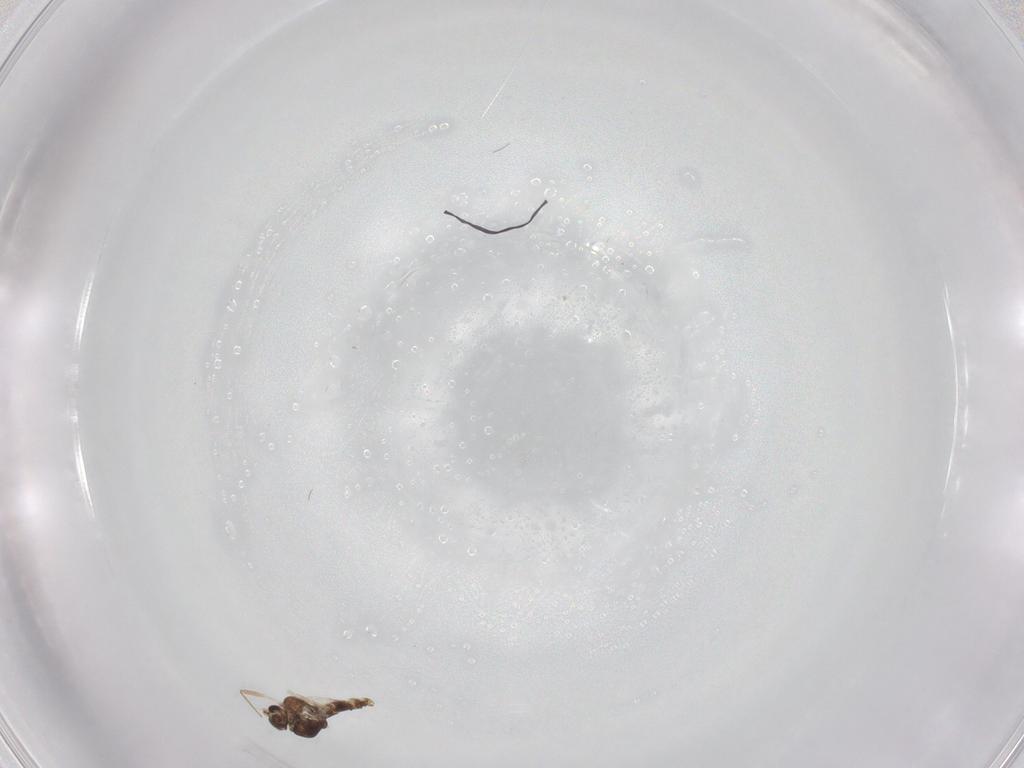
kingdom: Animalia
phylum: Arthropoda
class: Insecta
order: Diptera
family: Chironomidae
